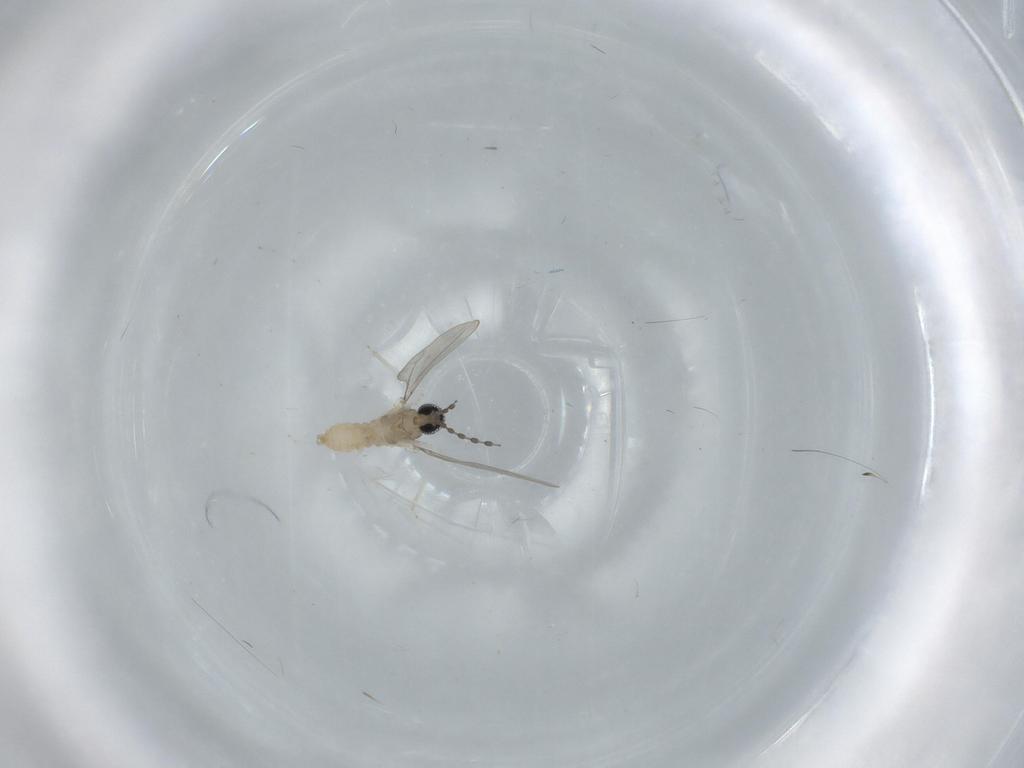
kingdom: Animalia
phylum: Arthropoda
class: Insecta
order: Diptera
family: Cecidomyiidae
